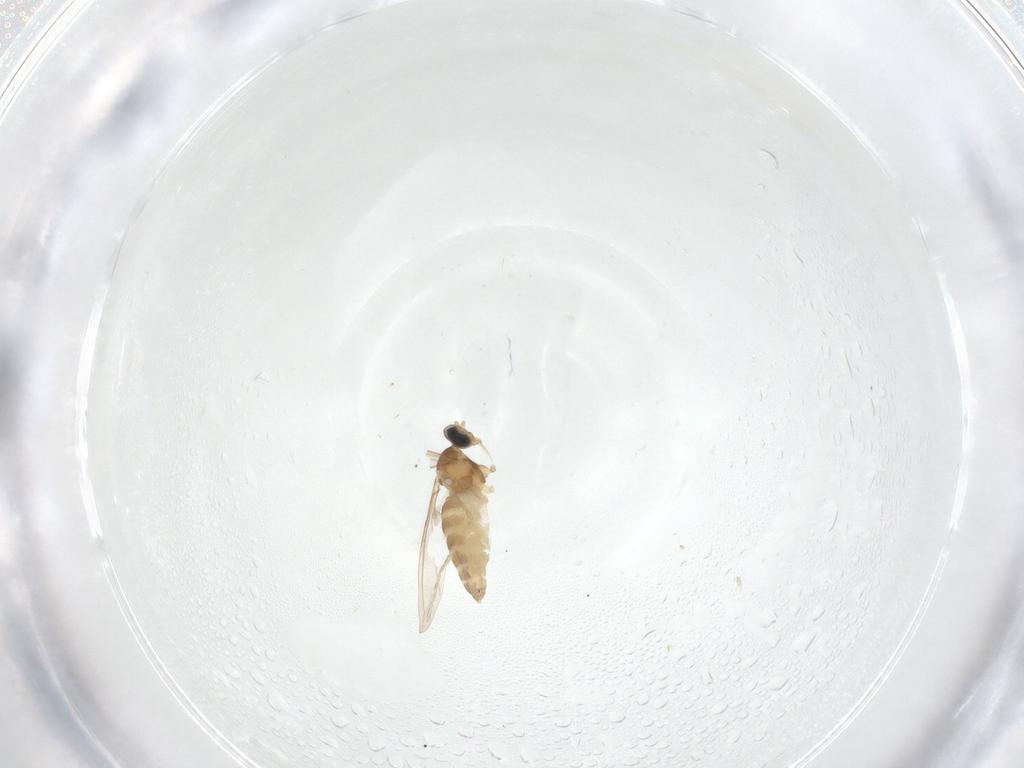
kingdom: Animalia
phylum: Arthropoda
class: Insecta
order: Diptera
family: Cecidomyiidae
